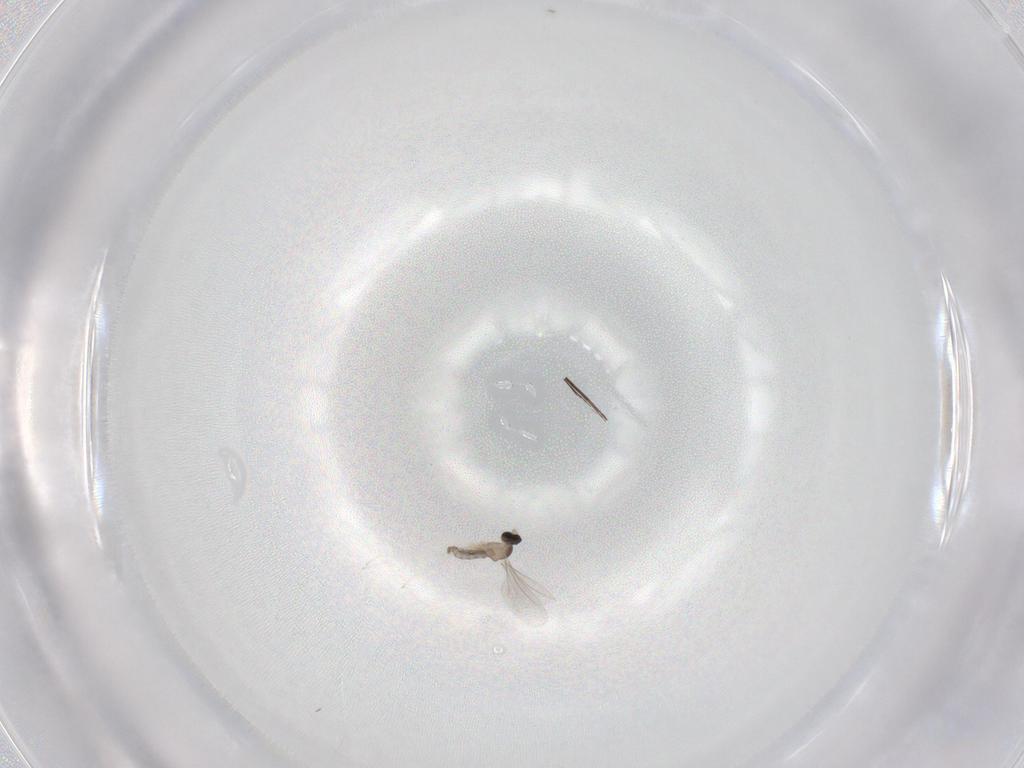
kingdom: Animalia
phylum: Arthropoda
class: Insecta
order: Diptera
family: Cecidomyiidae
